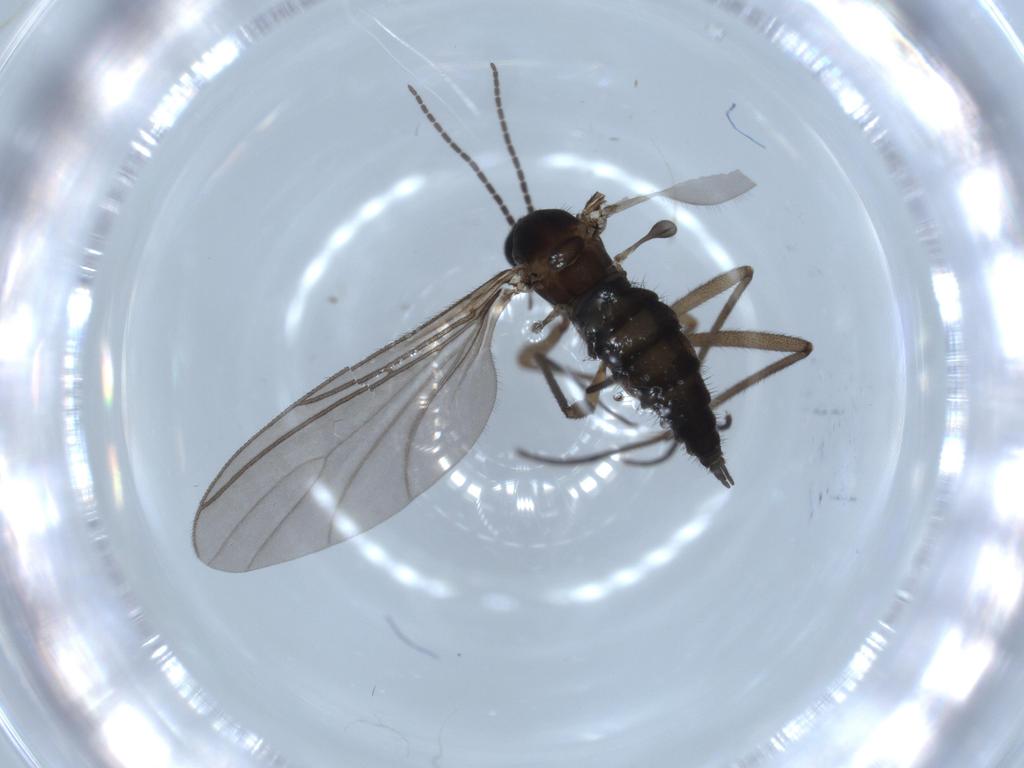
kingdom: Animalia
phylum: Arthropoda
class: Insecta
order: Diptera
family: Sciaridae
